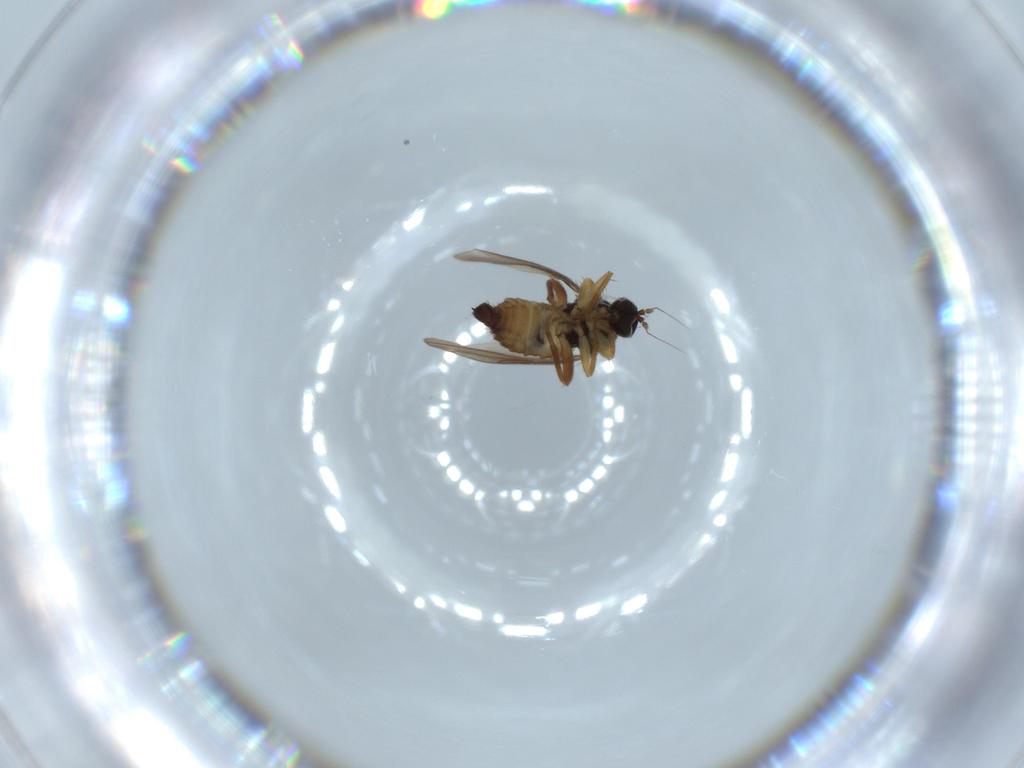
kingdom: Animalia
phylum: Arthropoda
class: Insecta
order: Diptera
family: Hybotidae
